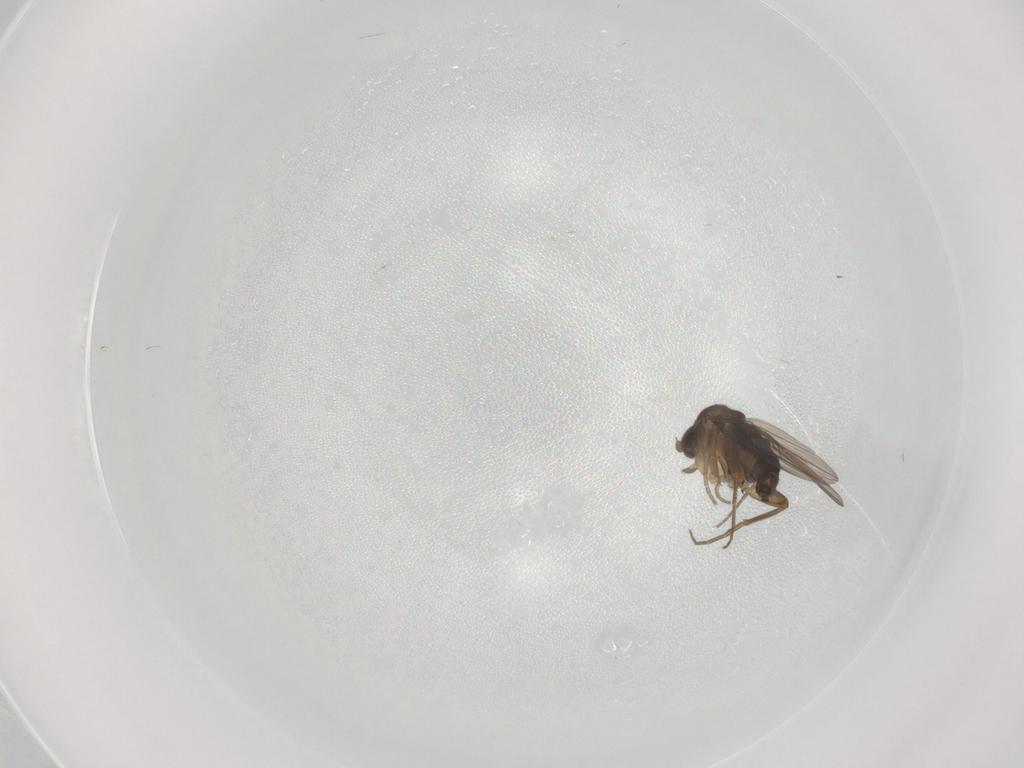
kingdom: Animalia
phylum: Arthropoda
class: Insecta
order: Diptera
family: Phoridae
